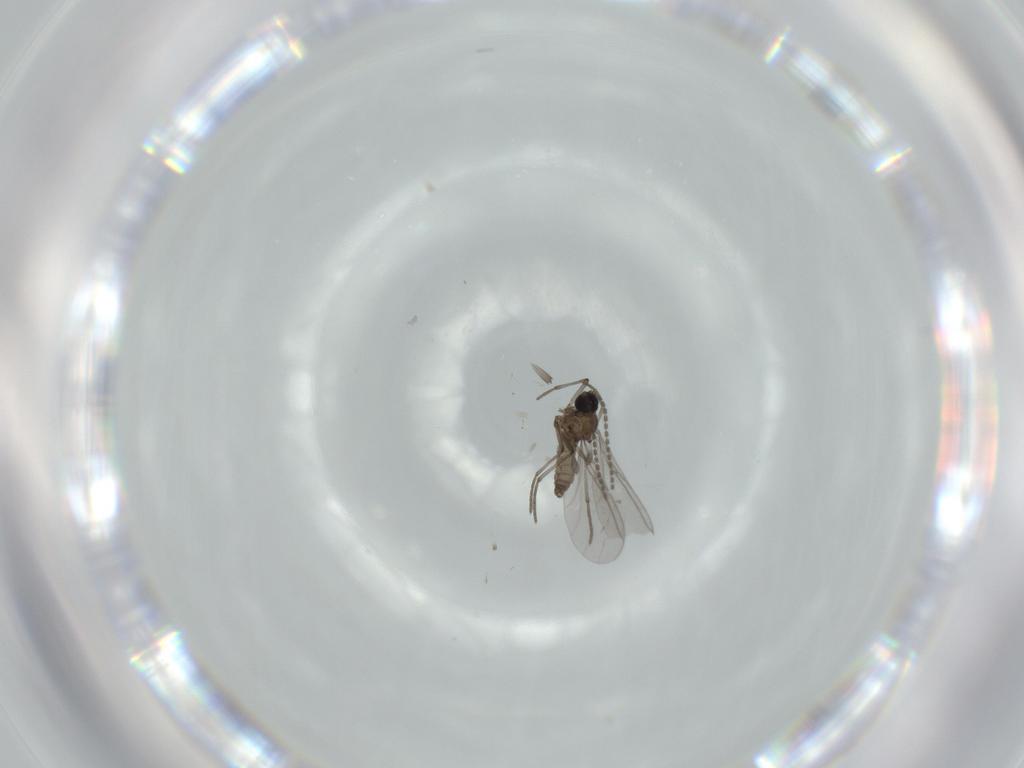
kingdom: Animalia
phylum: Arthropoda
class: Insecta
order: Diptera
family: Sciaridae
